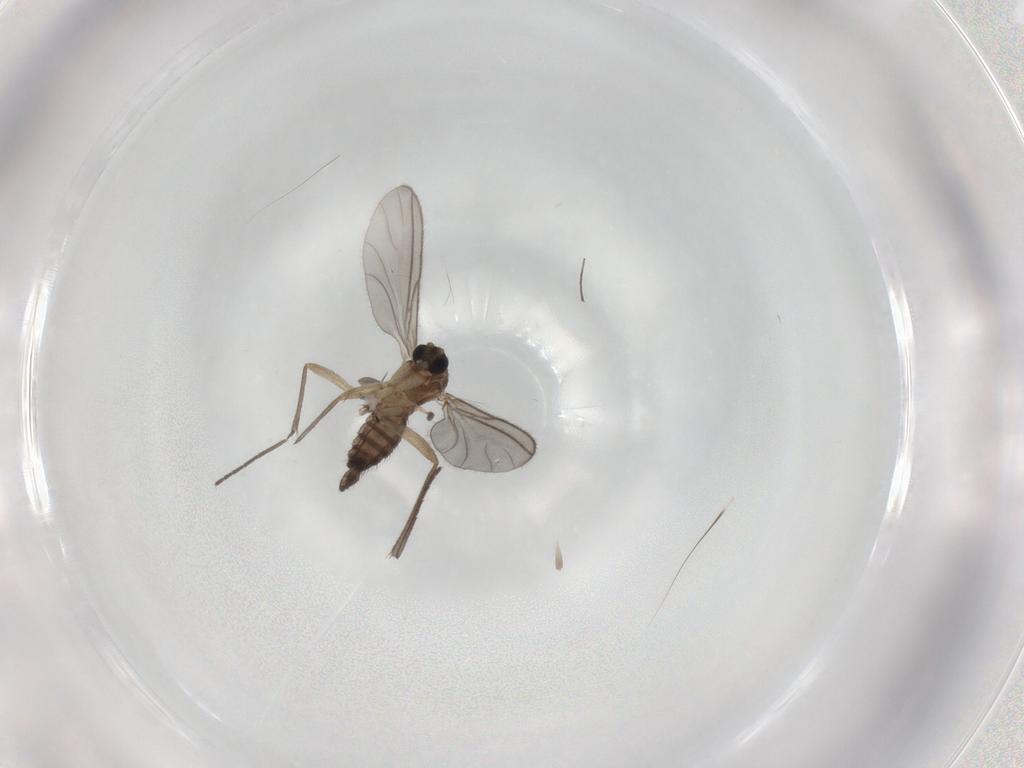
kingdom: Animalia
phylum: Arthropoda
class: Insecta
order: Diptera
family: Sciaridae
